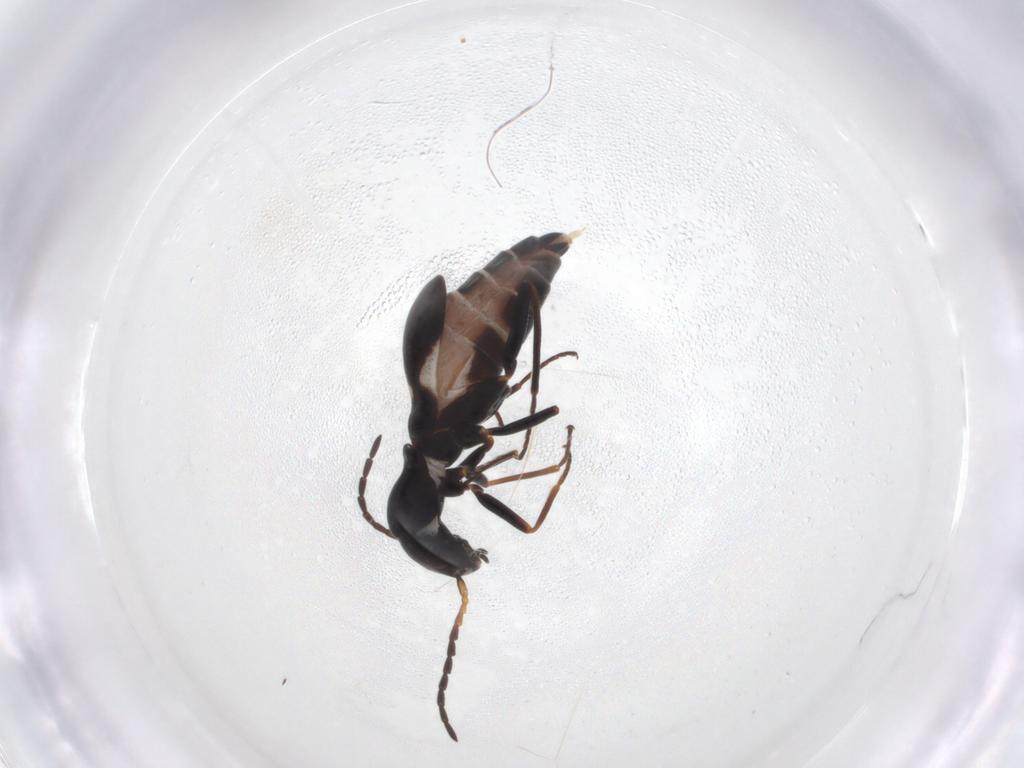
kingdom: Animalia
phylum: Arthropoda
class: Insecta
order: Coleoptera
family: Melyridae
